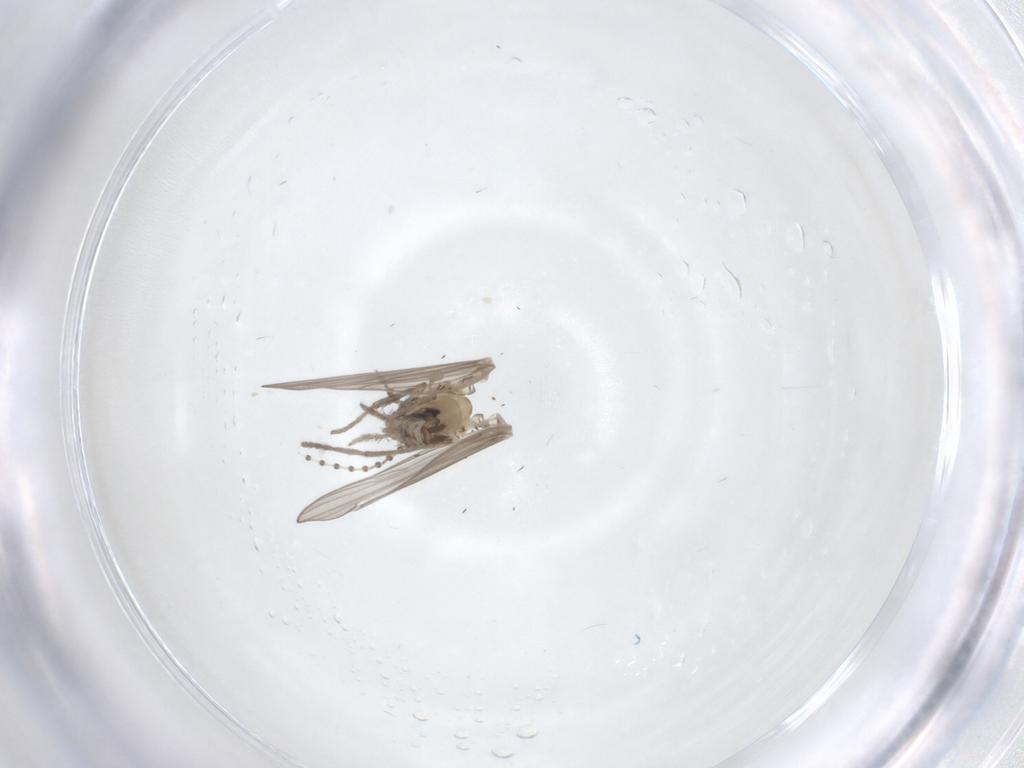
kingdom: Animalia
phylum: Arthropoda
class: Insecta
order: Diptera
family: Psychodidae
